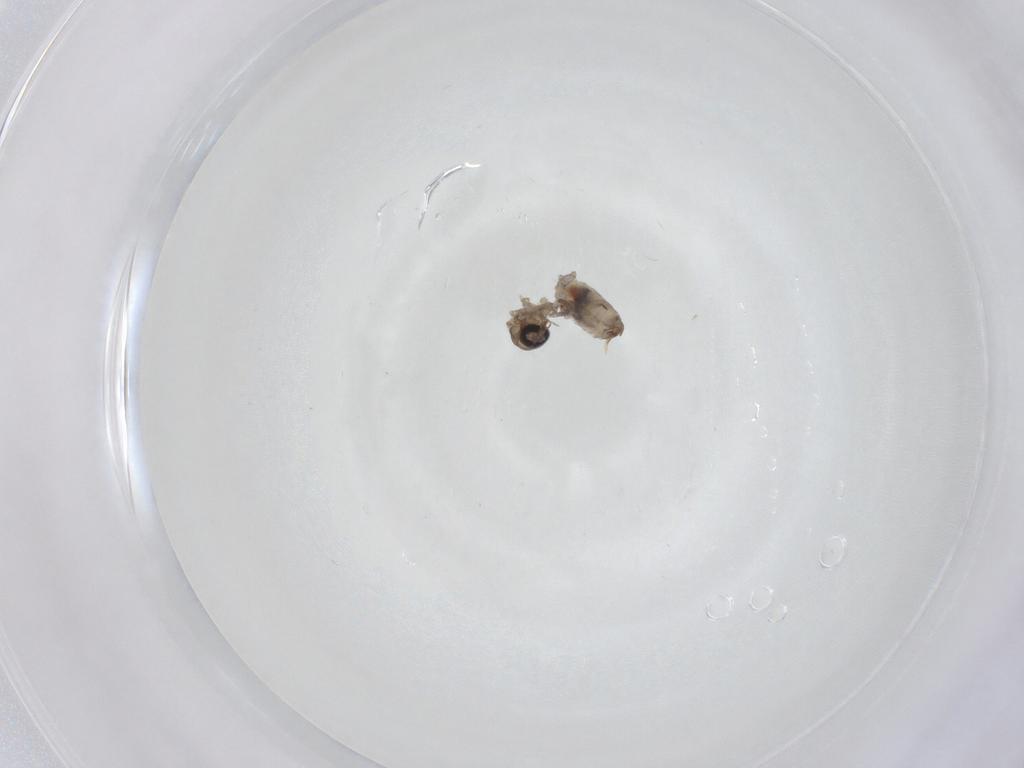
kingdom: Animalia
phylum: Arthropoda
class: Insecta
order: Diptera
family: Psychodidae
